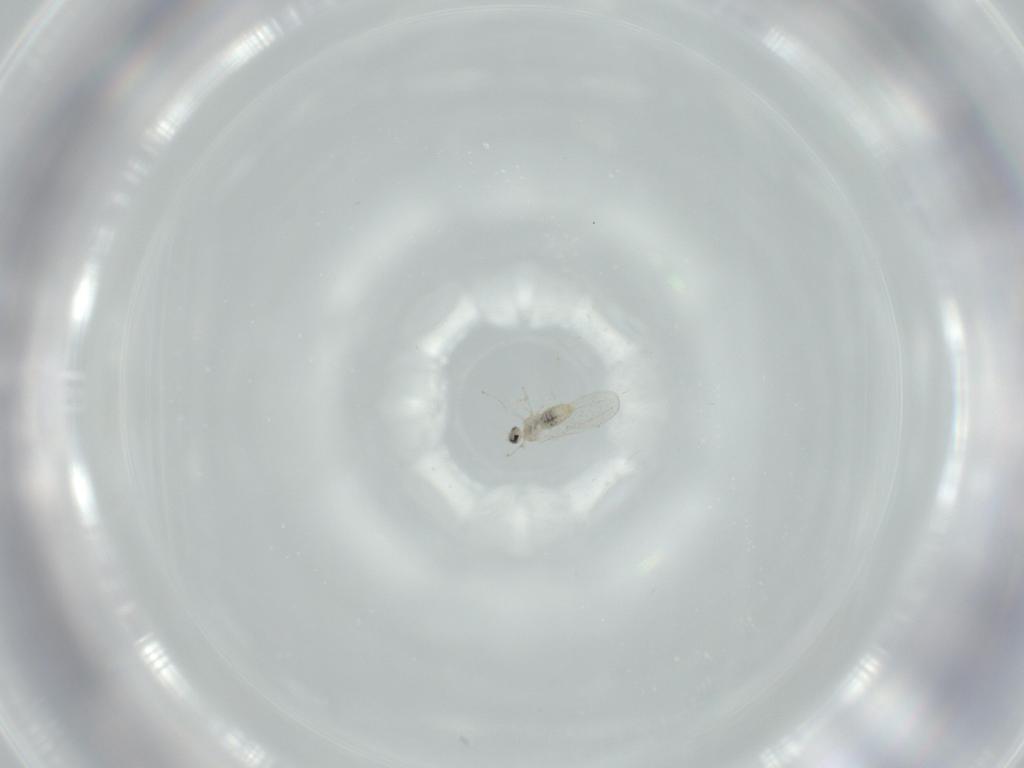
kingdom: Animalia
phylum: Arthropoda
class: Insecta
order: Diptera
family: Cecidomyiidae
